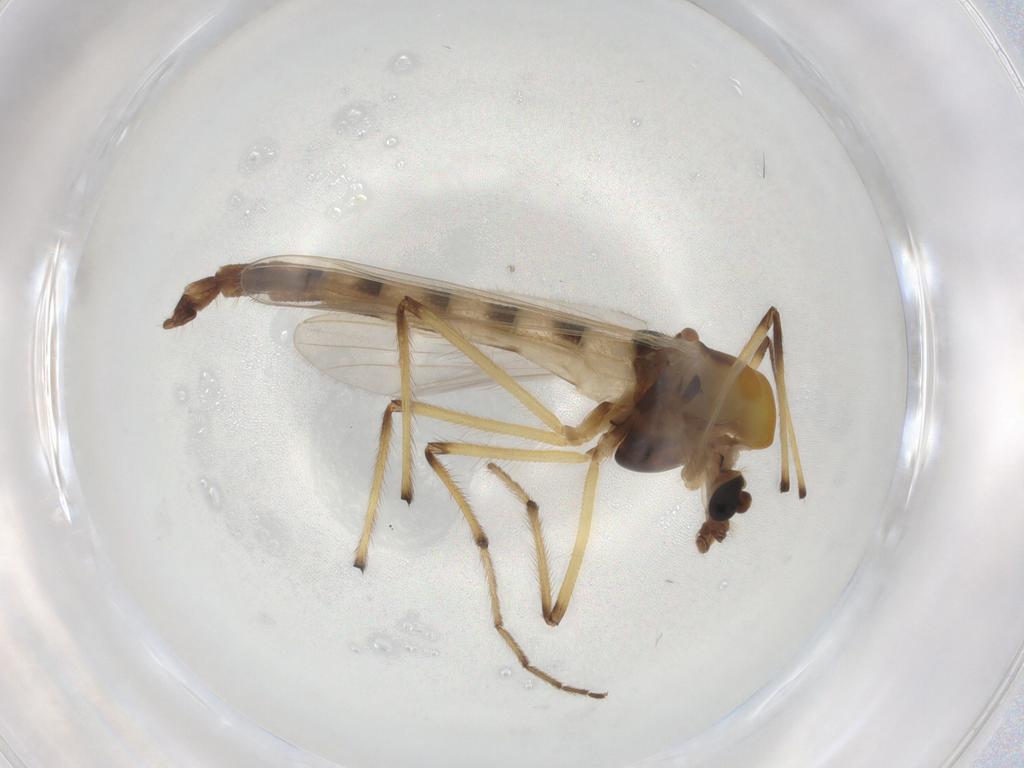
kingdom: Animalia
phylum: Arthropoda
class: Insecta
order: Diptera
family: Chironomidae
